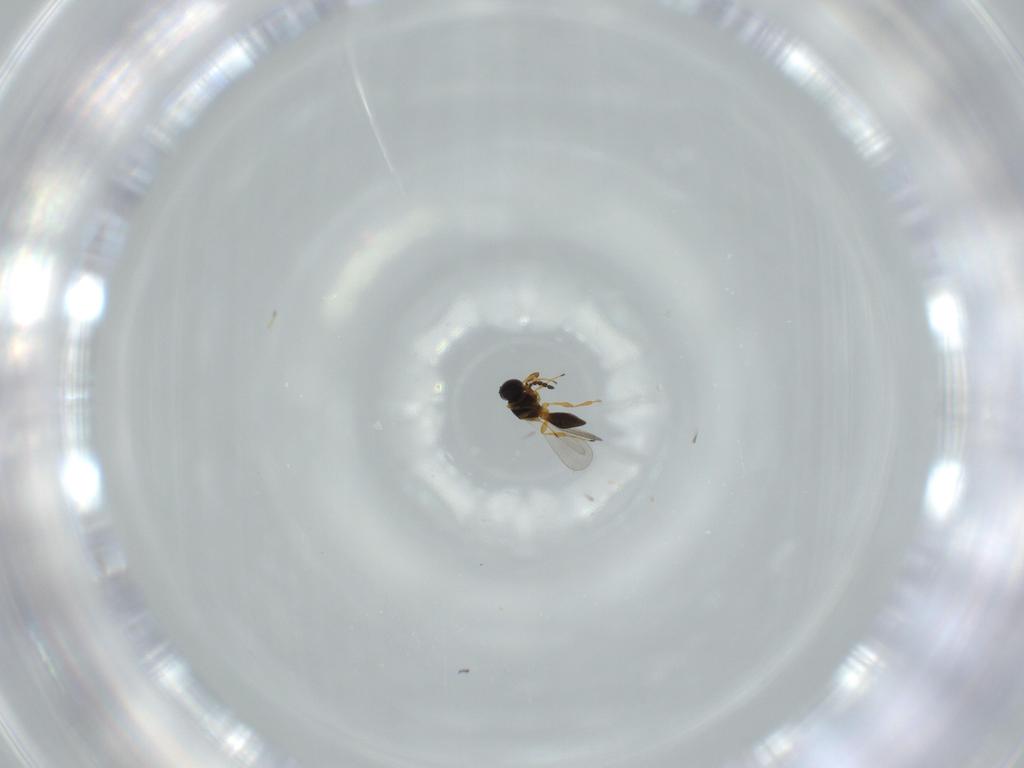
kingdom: Animalia
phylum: Arthropoda
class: Insecta
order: Hymenoptera
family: Platygastridae
